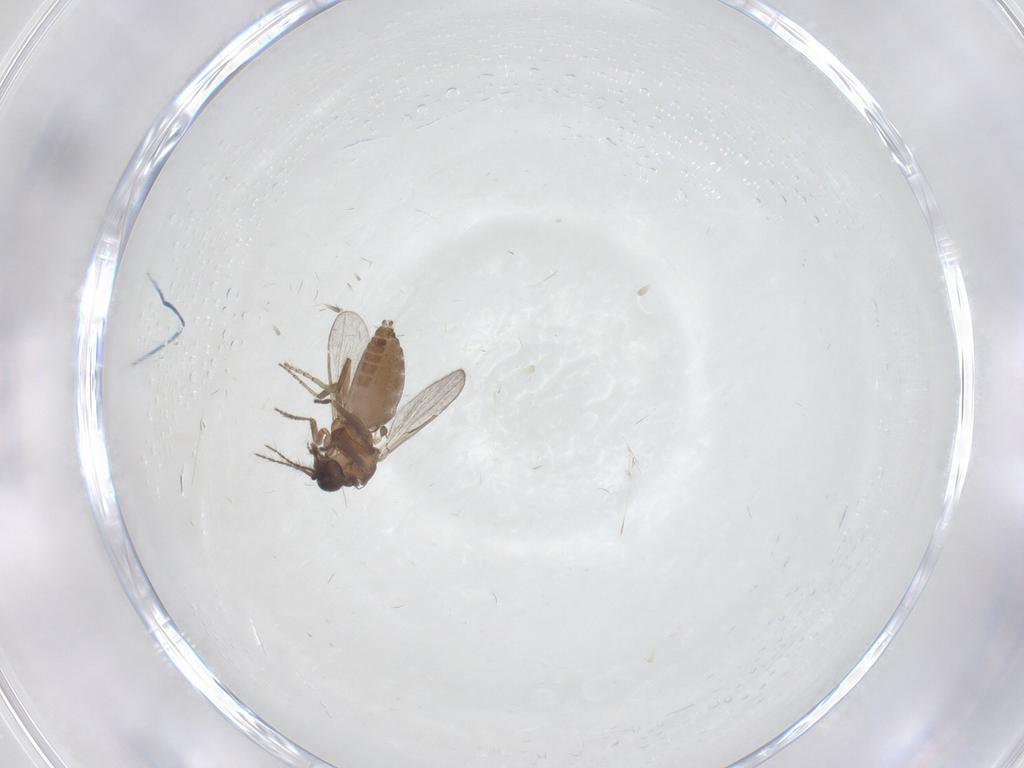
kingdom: Animalia
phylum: Arthropoda
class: Insecta
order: Diptera
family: Ceratopogonidae
